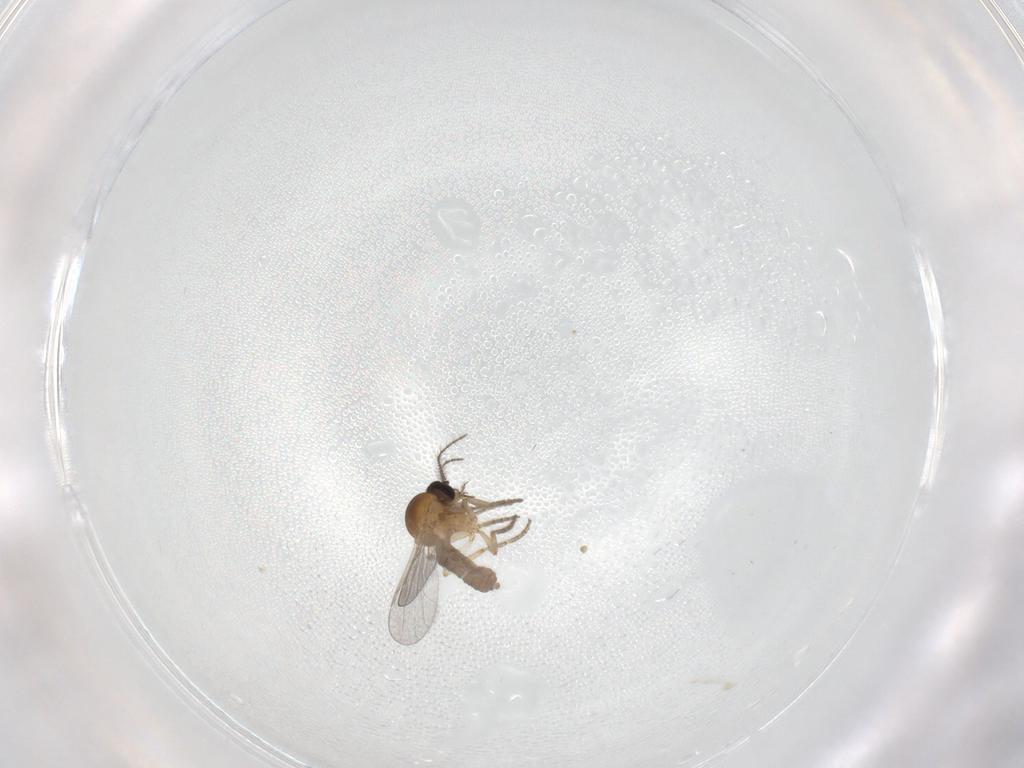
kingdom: Animalia
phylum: Arthropoda
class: Insecta
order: Diptera
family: Ceratopogonidae
